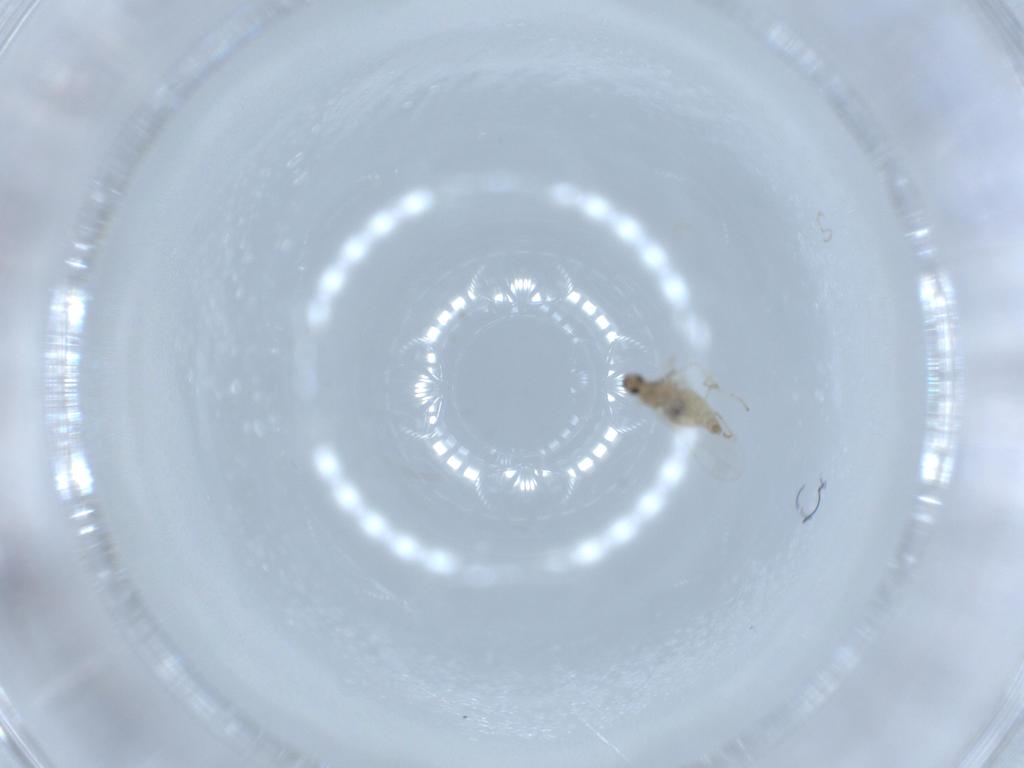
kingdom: Animalia
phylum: Arthropoda
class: Insecta
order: Diptera
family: Cecidomyiidae
